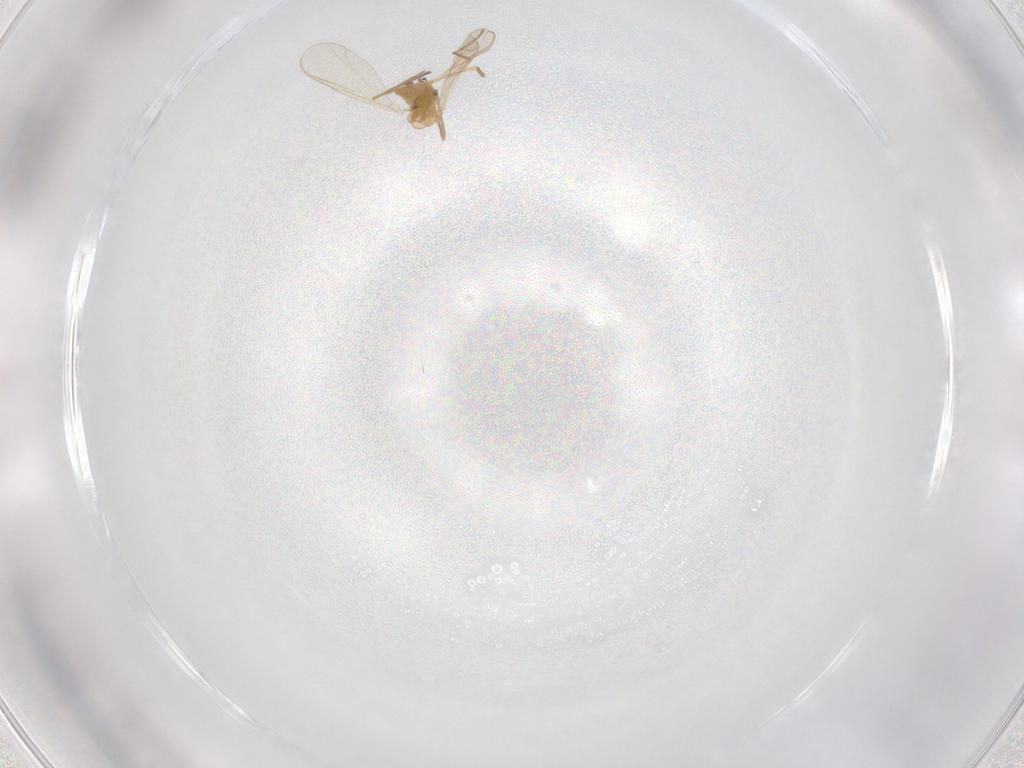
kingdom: Animalia
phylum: Arthropoda
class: Insecta
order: Diptera
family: Chironomidae
